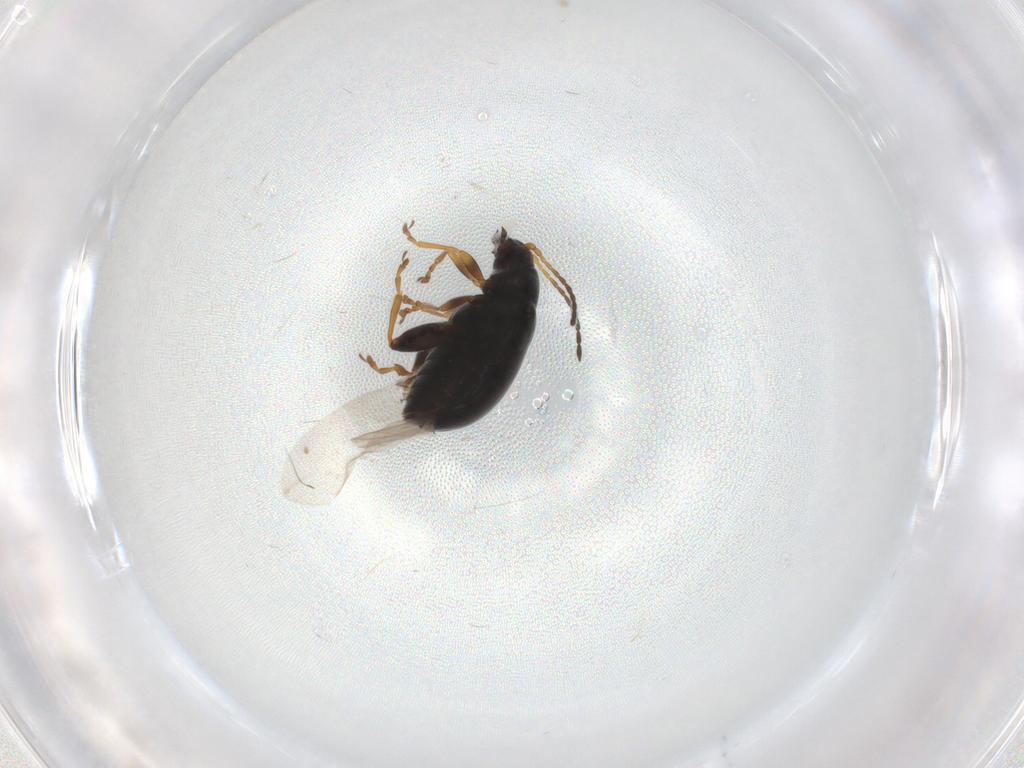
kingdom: Animalia
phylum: Arthropoda
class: Insecta
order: Coleoptera
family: Chrysomelidae
